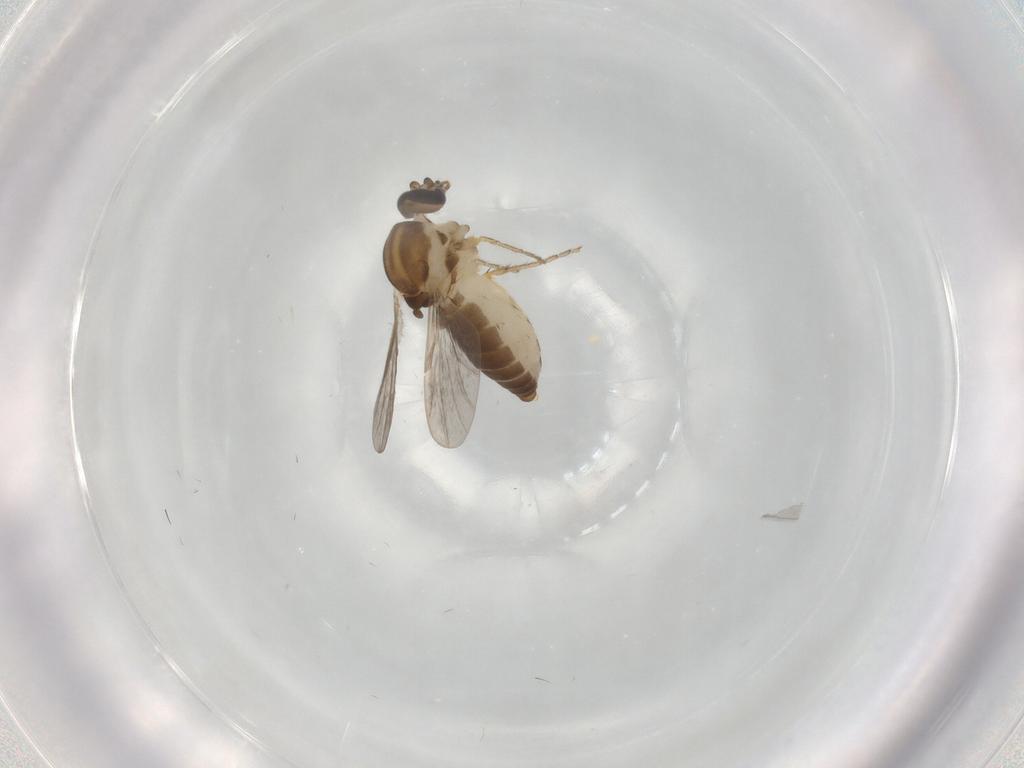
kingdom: Animalia
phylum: Arthropoda
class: Insecta
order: Diptera
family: Ceratopogonidae
